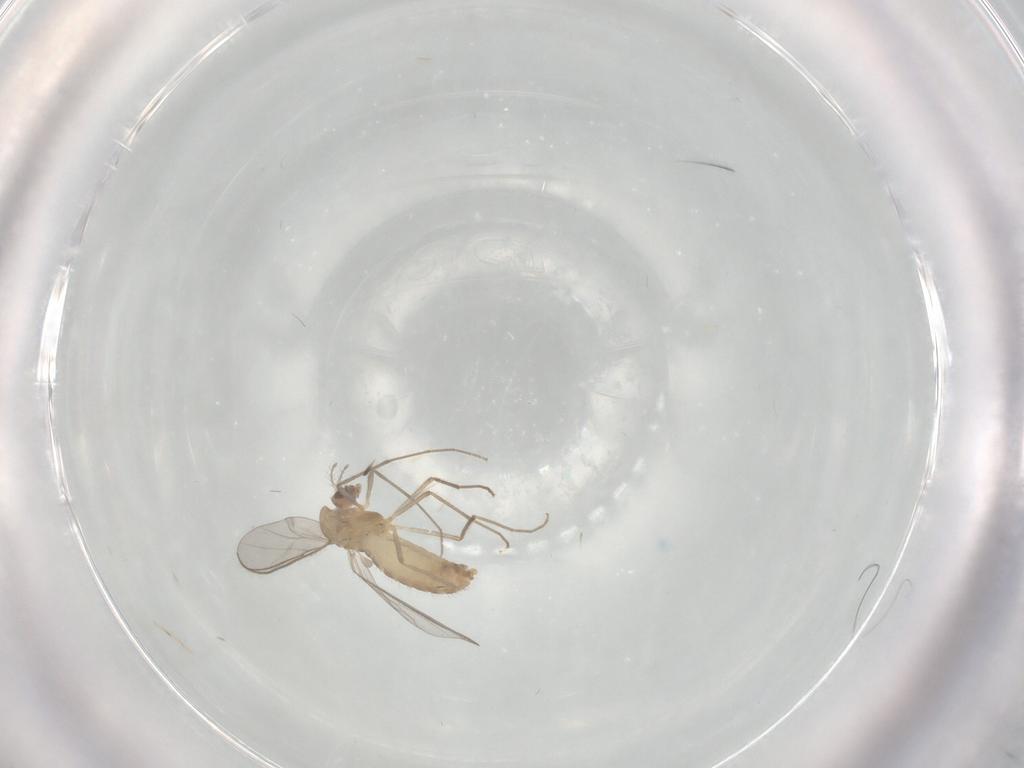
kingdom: Animalia
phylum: Arthropoda
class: Insecta
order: Diptera
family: Chironomidae
